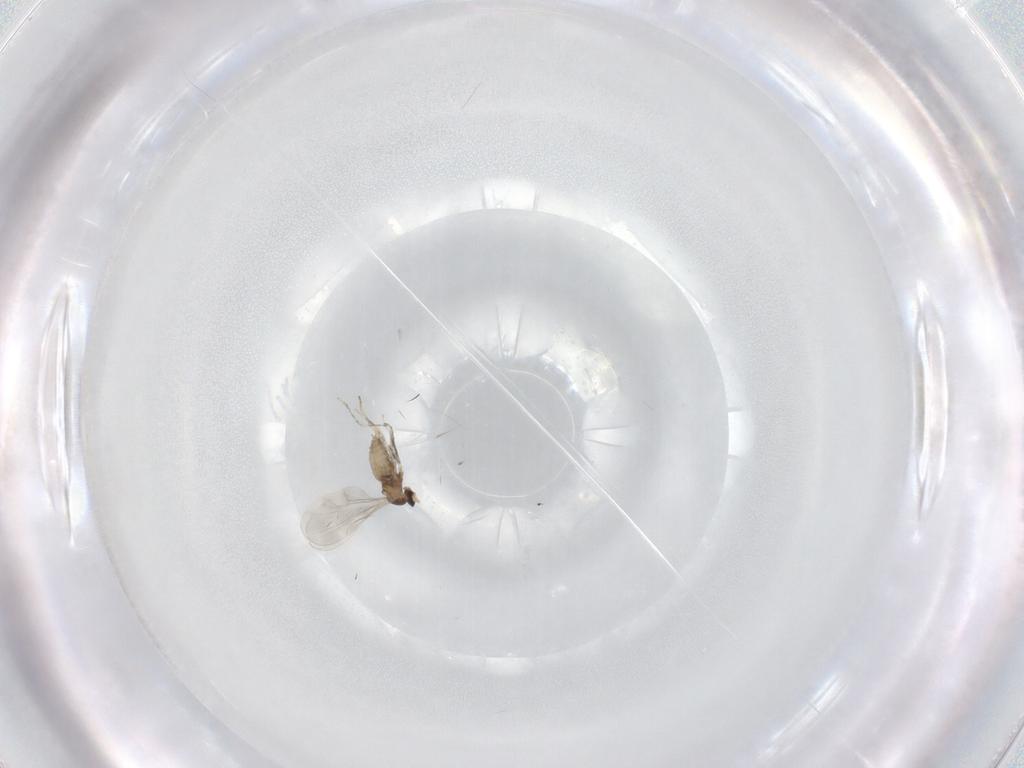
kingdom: Animalia
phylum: Arthropoda
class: Insecta
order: Diptera
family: Cecidomyiidae
